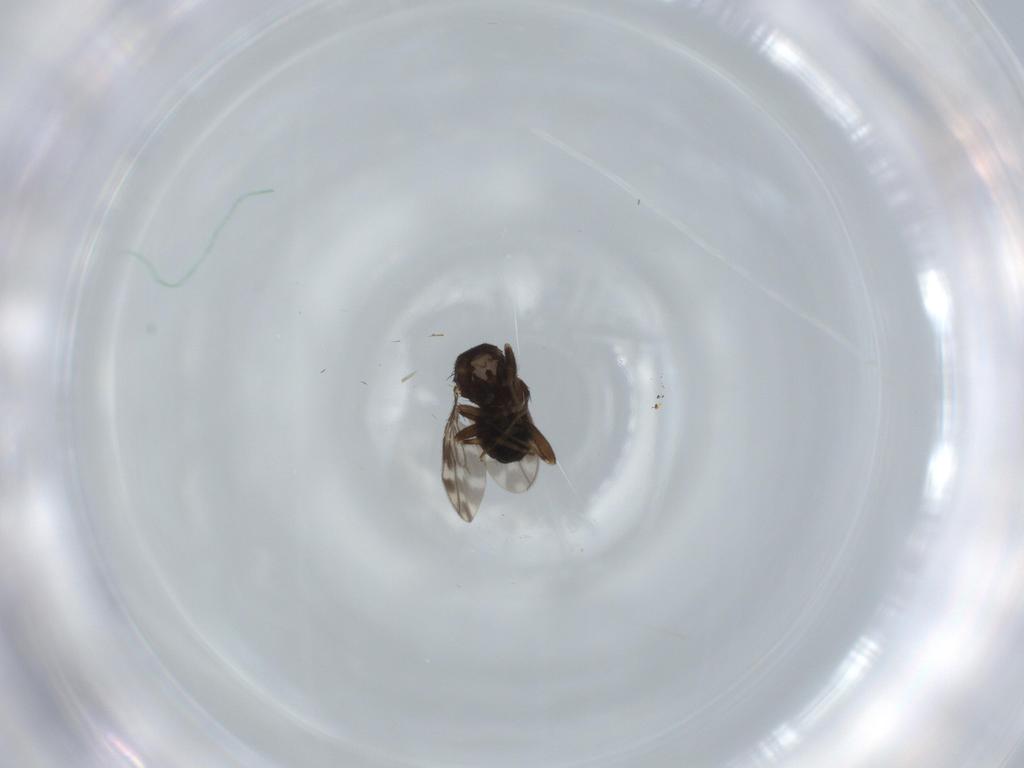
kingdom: Animalia
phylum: Arthropoda
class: Insecta
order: Diptera
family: Sphaeroceridae
